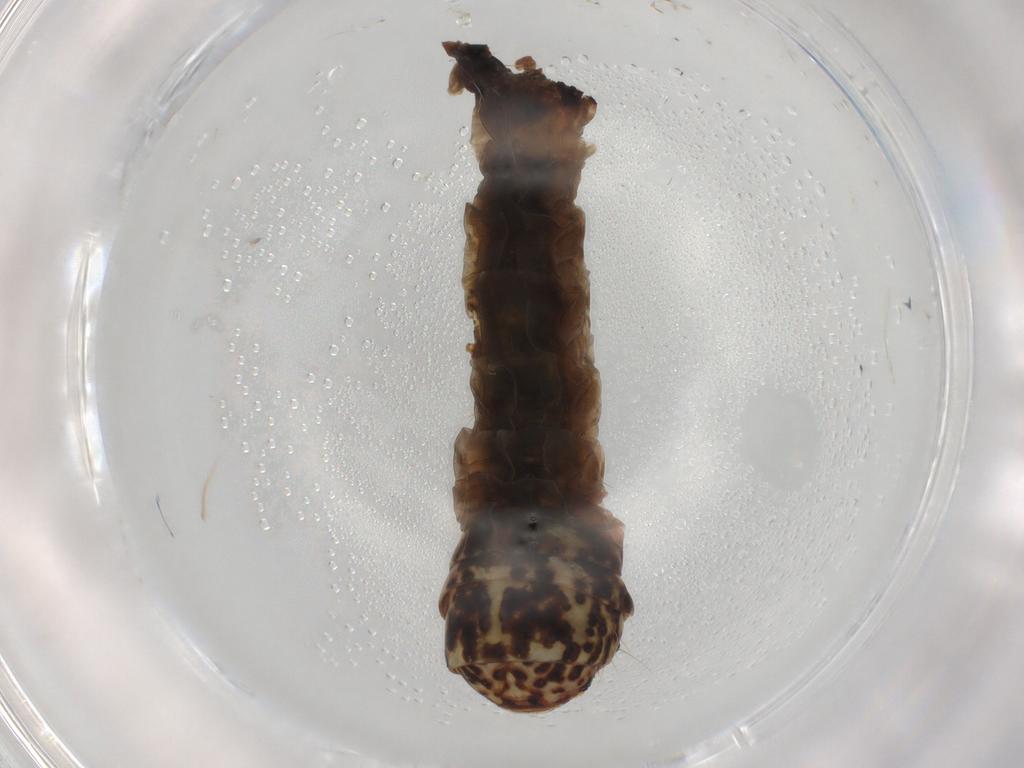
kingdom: Animalia
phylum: Arthropoda
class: Insecta
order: Lepidoptera
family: Psychidae
